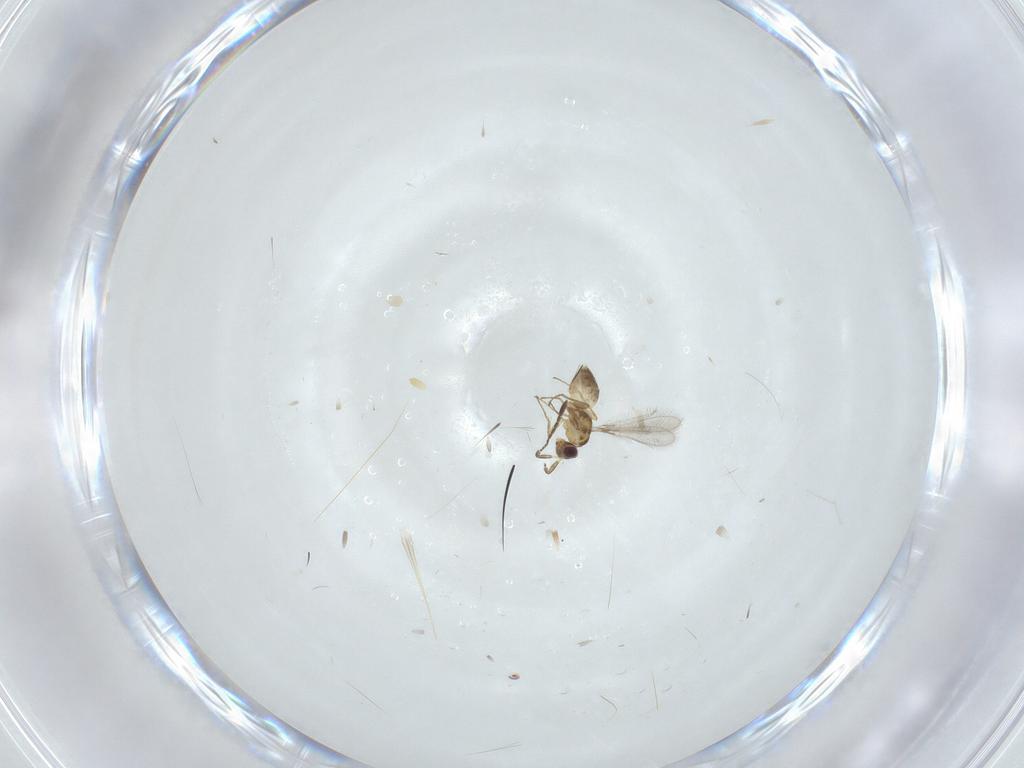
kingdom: Animalia
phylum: Arthropoda
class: Insecta
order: Hymenoptera
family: Mymaridae
